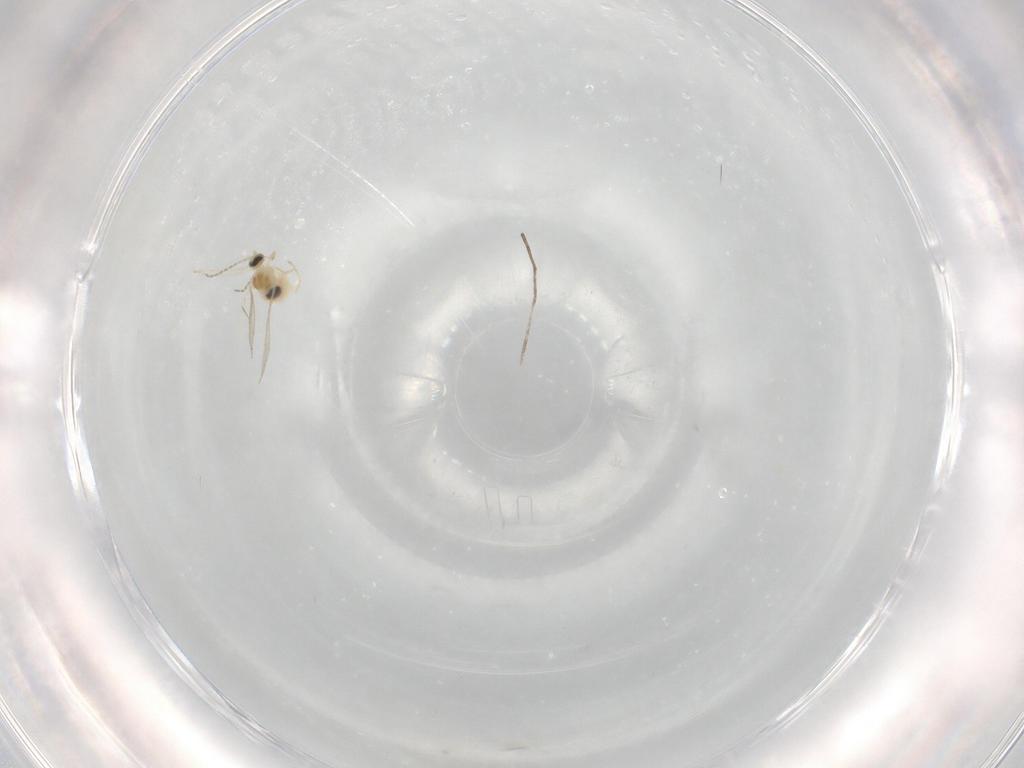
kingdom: Animalia
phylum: Arthropoda
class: Insecta
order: Diptera
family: Cecidomyiidae
